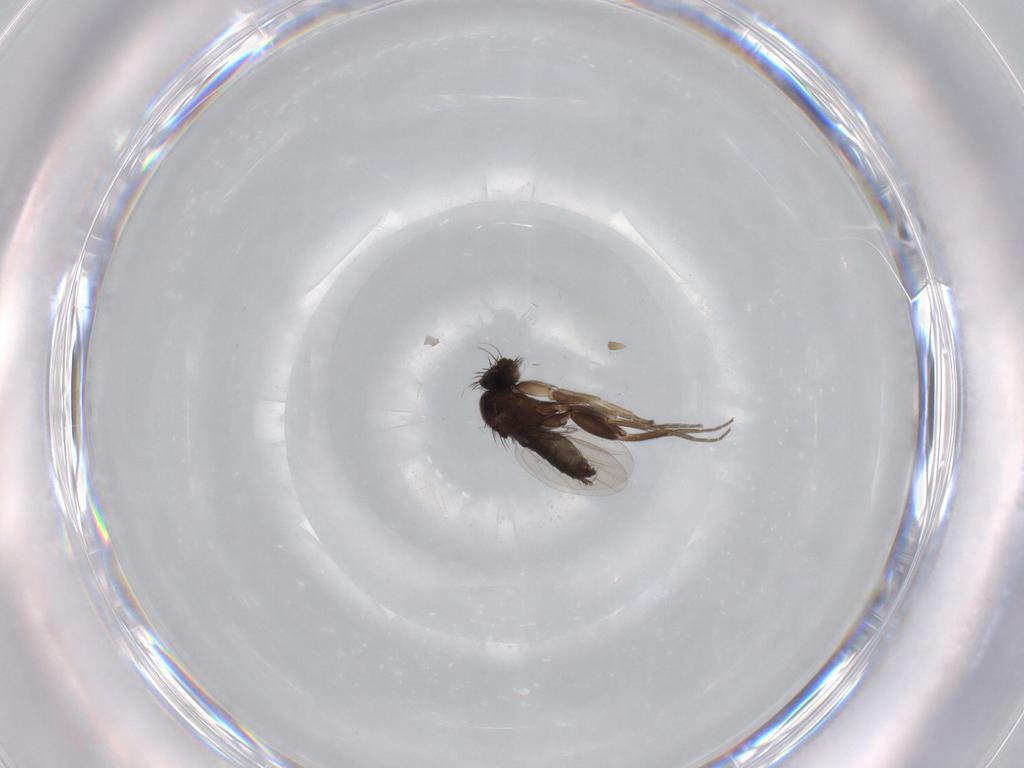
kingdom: Animalia
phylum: Arthropoda
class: Insecta
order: Diptera
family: Phoridae
